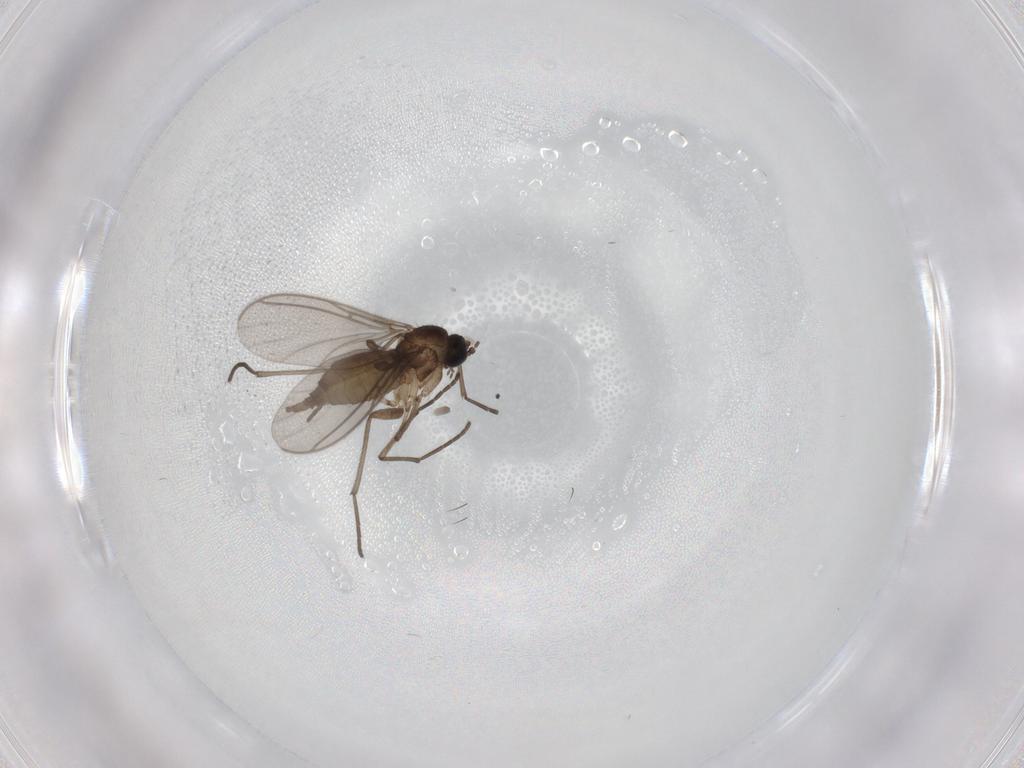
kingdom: Animalia
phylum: Arthropoda
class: Insecta
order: Diptera
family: Cecidomyiidae
